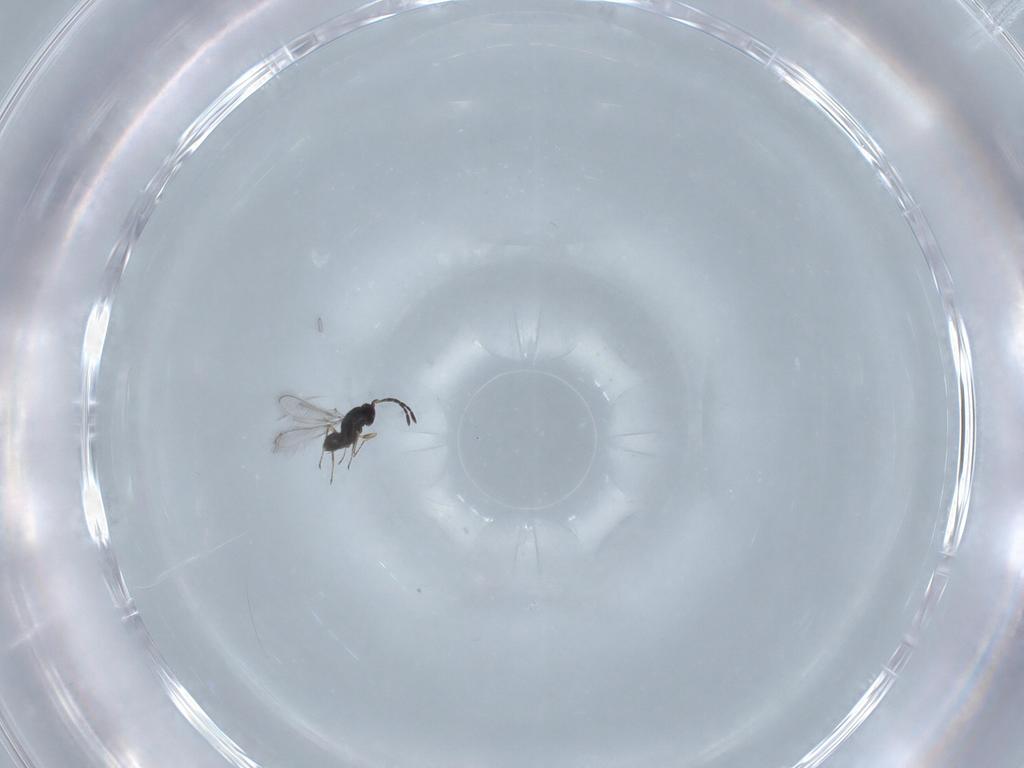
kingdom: Animalia
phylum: Arthropoda
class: Insecta
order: Hymenoptera
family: Mymaridae
